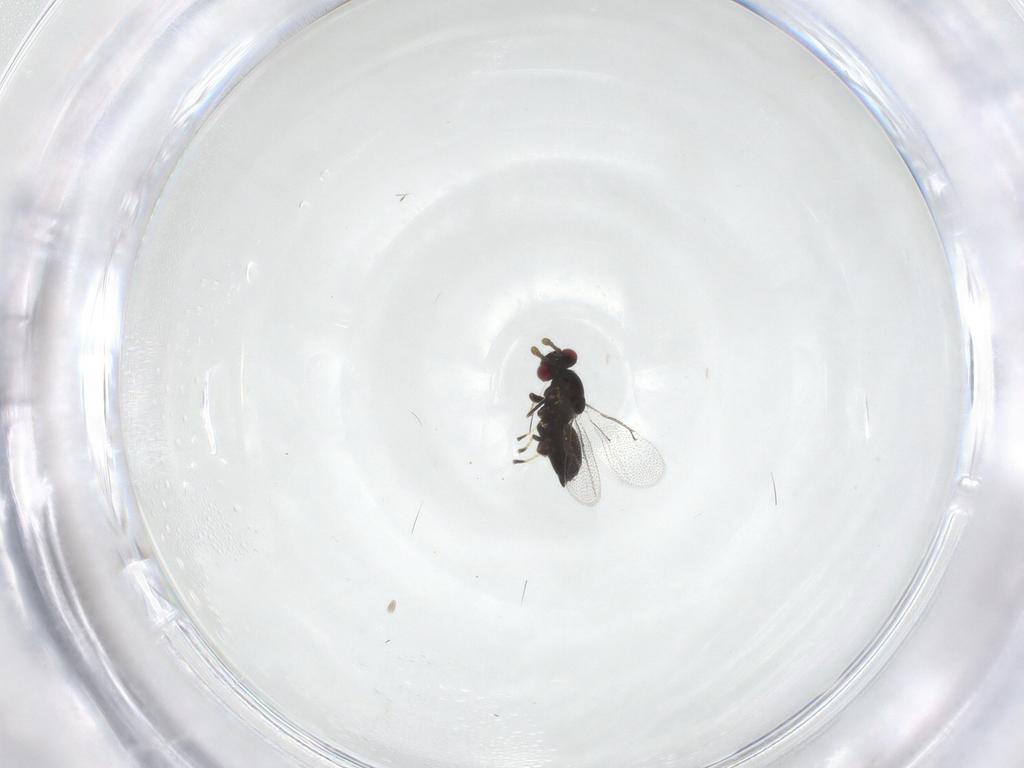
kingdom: Animalia
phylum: Arthropoda
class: Insecta
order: Hymenoptera
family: Eulophidae
